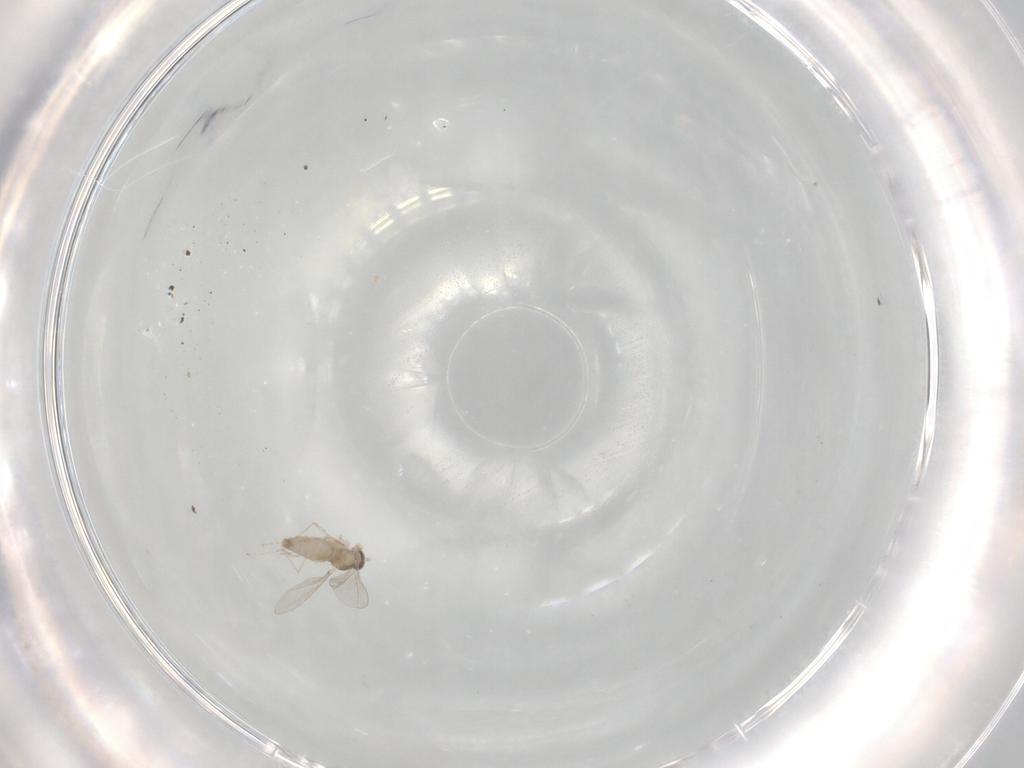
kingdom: Animalia
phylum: Arthropoda
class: Insecta
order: Diptera
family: Cecidomyiidae
